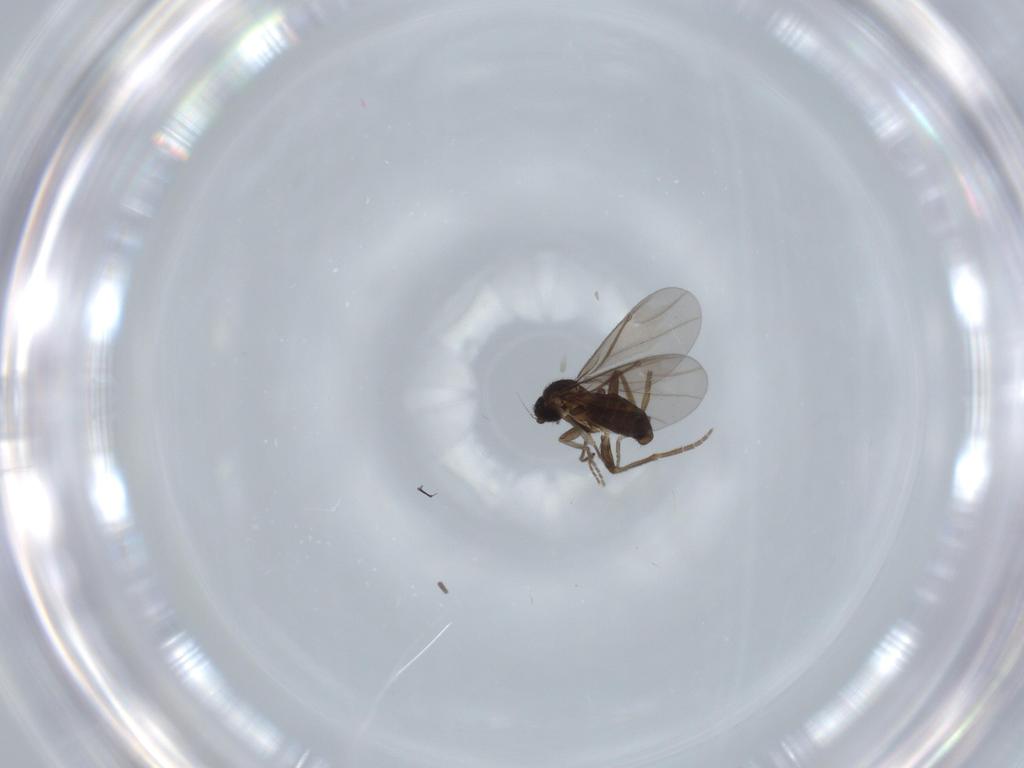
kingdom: Animalia
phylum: Arthropoda
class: Insecta
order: Diptera
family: Phoridae
